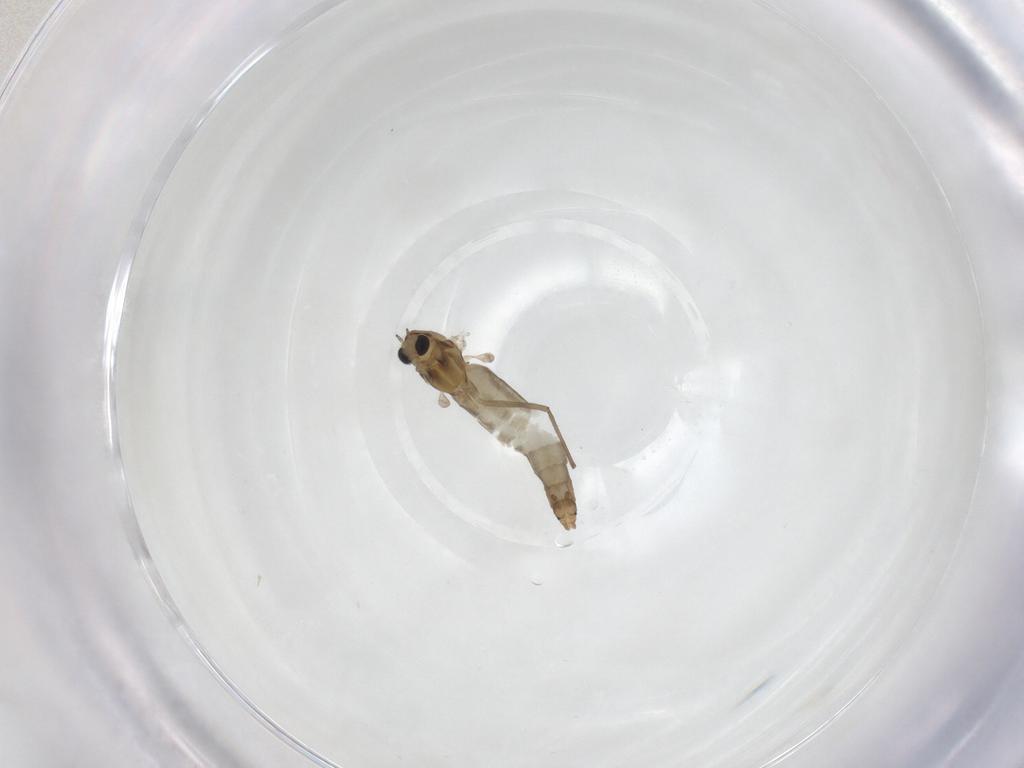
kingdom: Animalia
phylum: Arthropoda
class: Insecta
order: Diptera
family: Chironomidae
